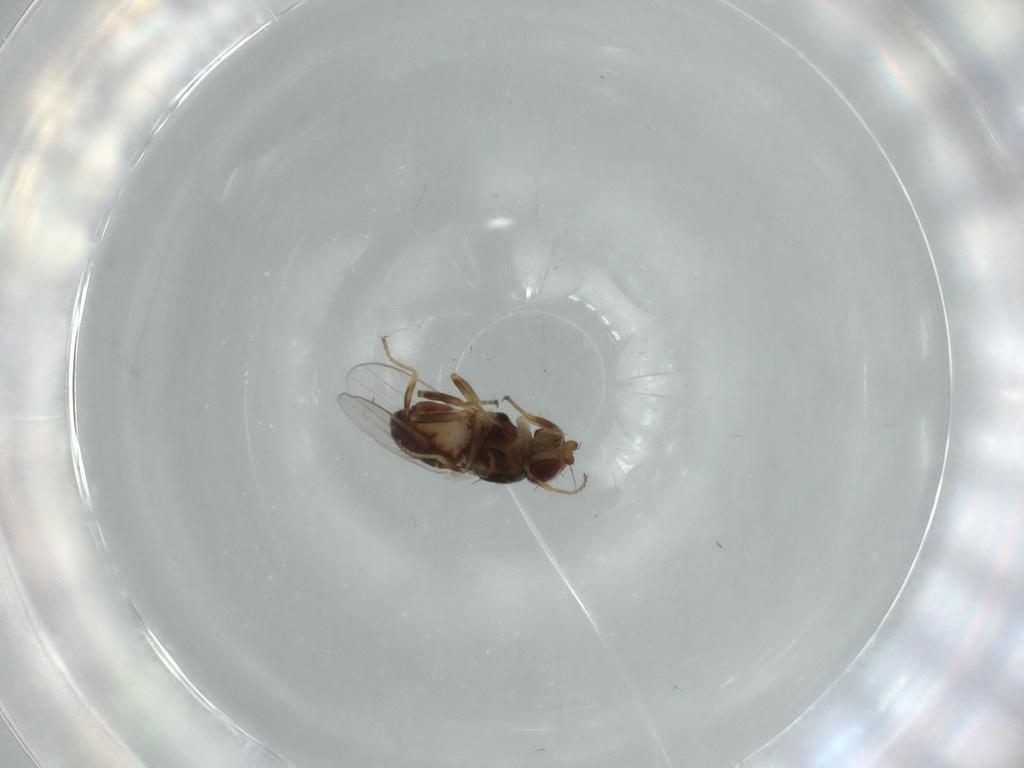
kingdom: Animalia
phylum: Arthropoda
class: Insecta
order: Diptera
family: Chloropidae
